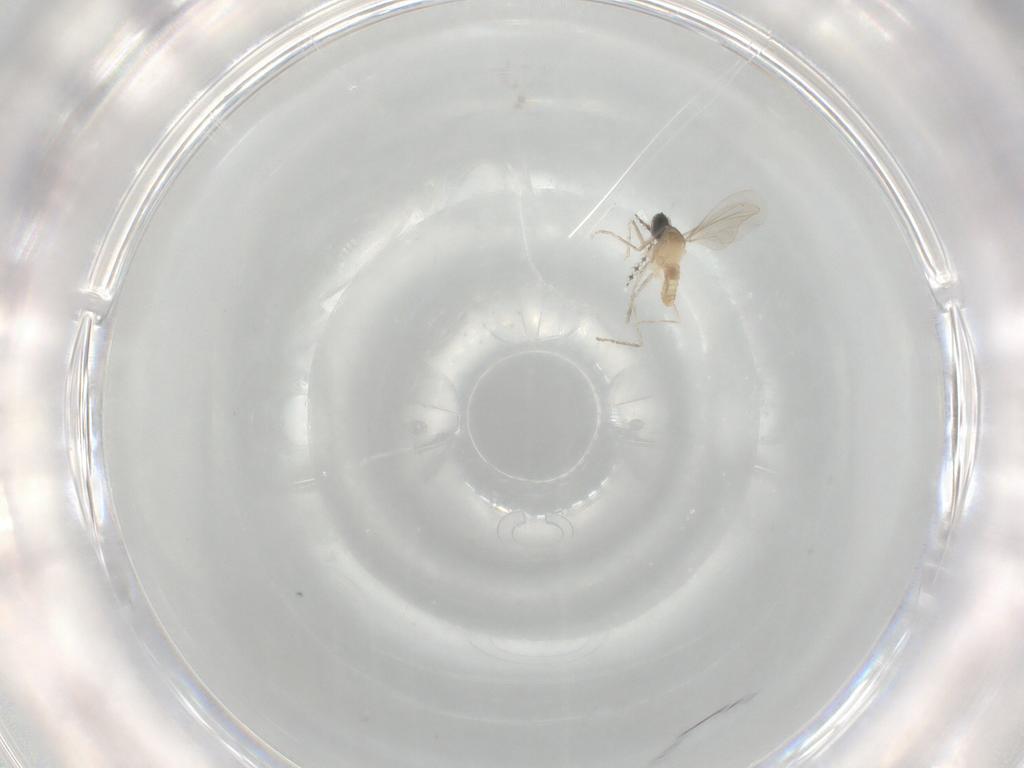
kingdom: Animalia
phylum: Arthropoda
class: Insecta
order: Diptera
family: Cecidomyiidae
